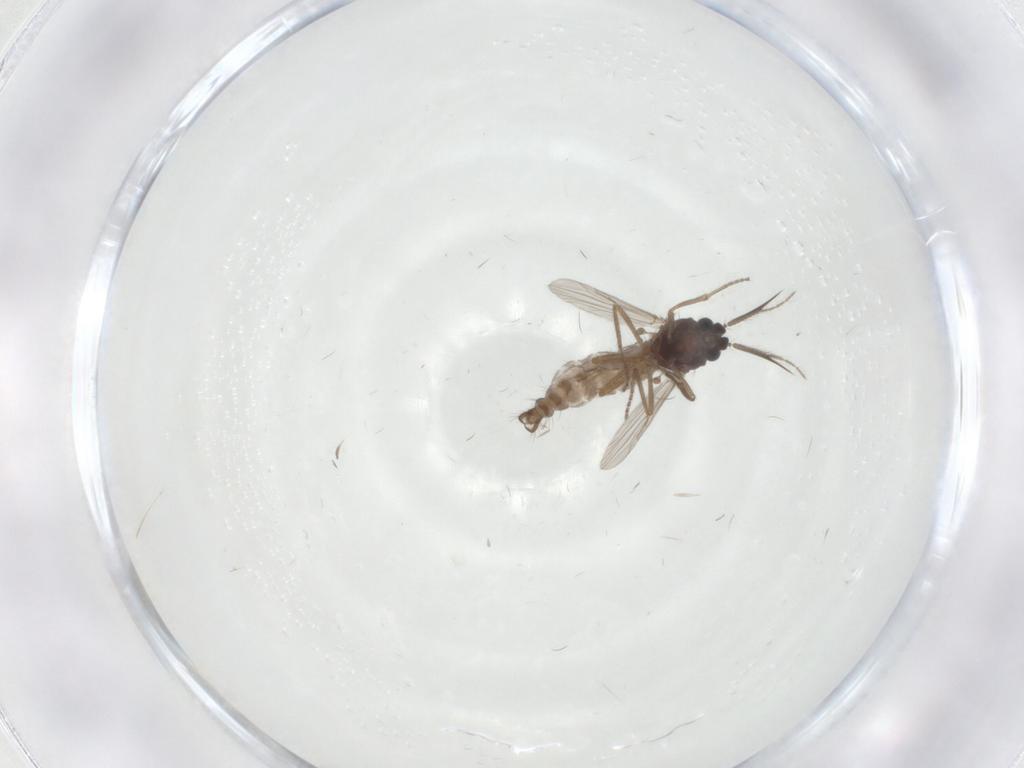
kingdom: Animalia
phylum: Arthropoda
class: Insecta
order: Diptera
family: Ceratopogonidae
